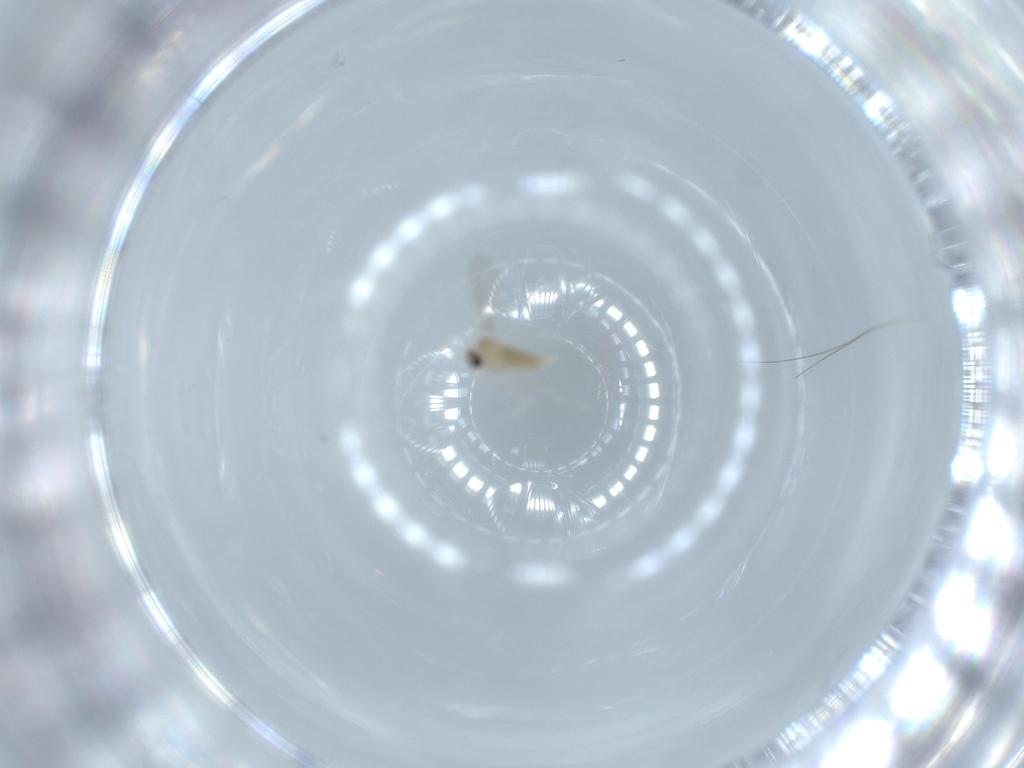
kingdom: Animalia
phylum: Arthropoda
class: Insecta
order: Diptera
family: Cecidomyiidae
